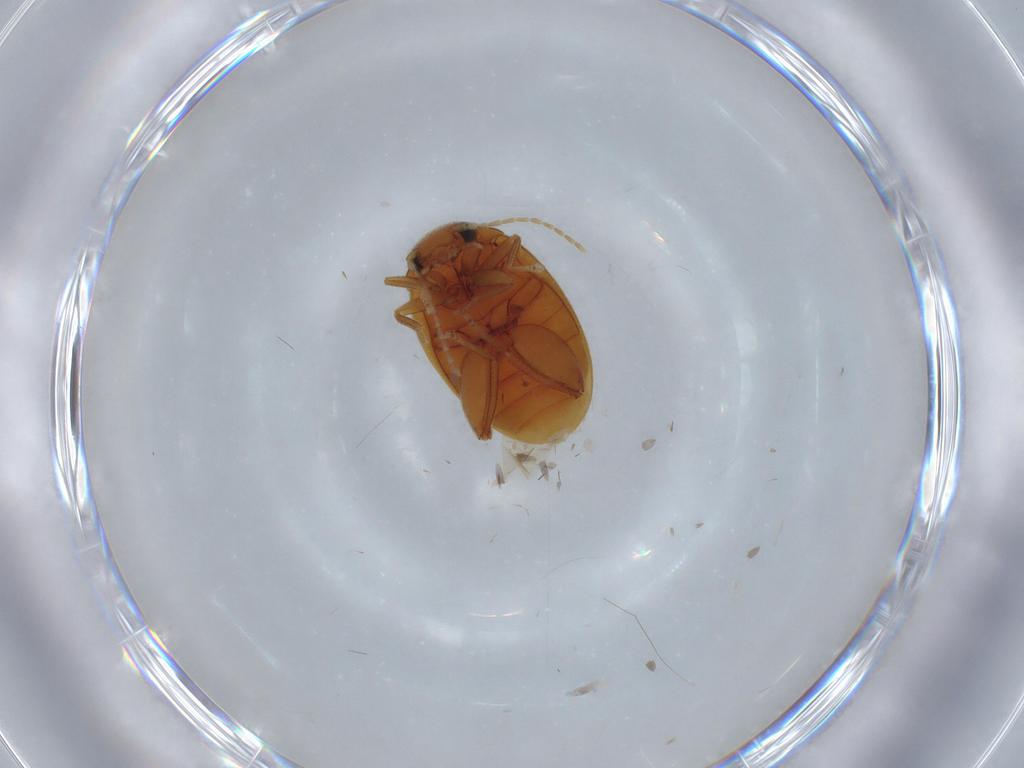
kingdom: Animalia
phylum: Arthropoda
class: Insecta
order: Coleoptera
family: Scirtidae
